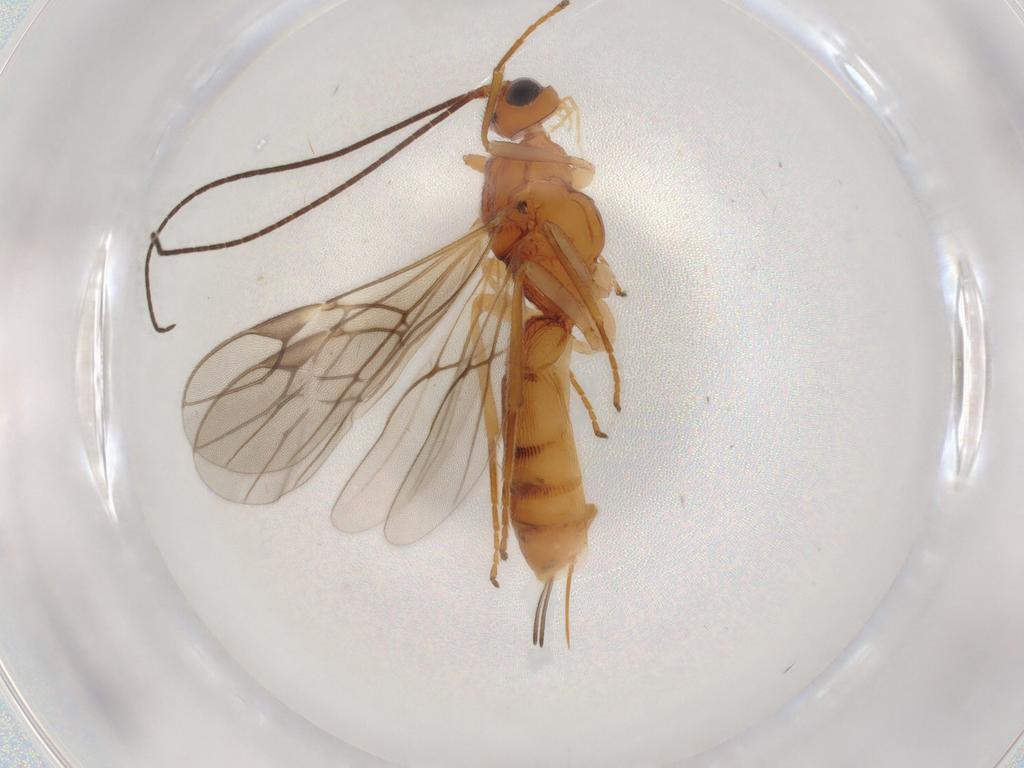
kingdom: Animalia
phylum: Arthropoda
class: Insecta
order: Hymenoptera
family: Braconidae
